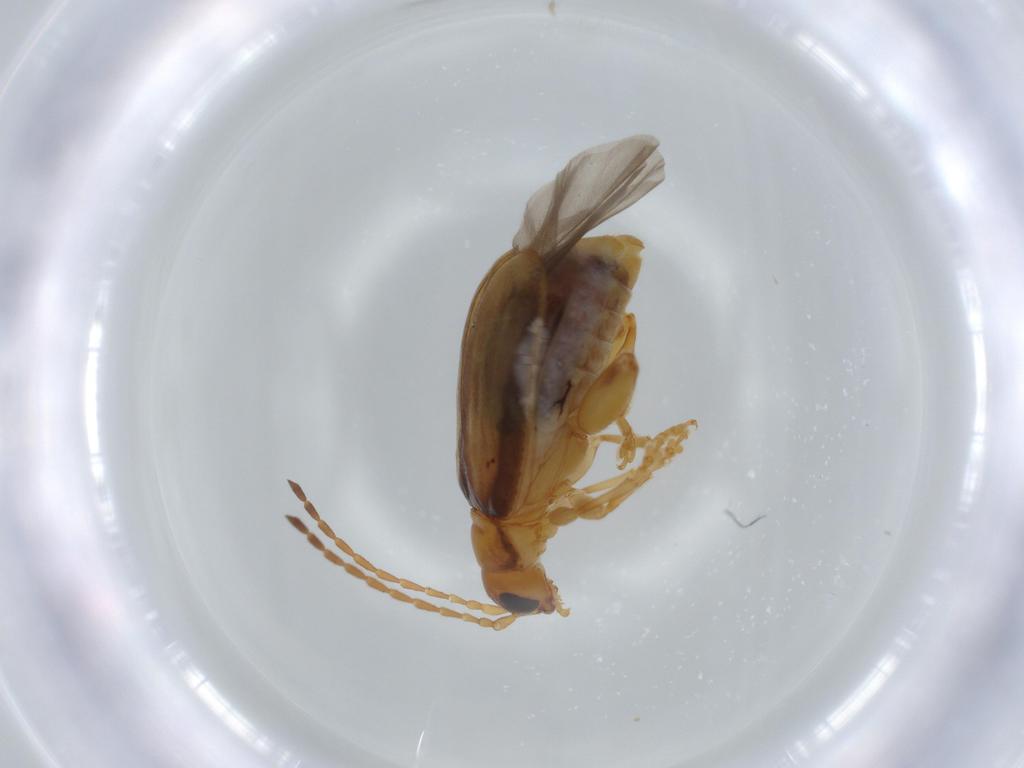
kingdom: Animalia
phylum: Arthropoda
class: Insecta
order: Coleoptera
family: Chrysomelidae
